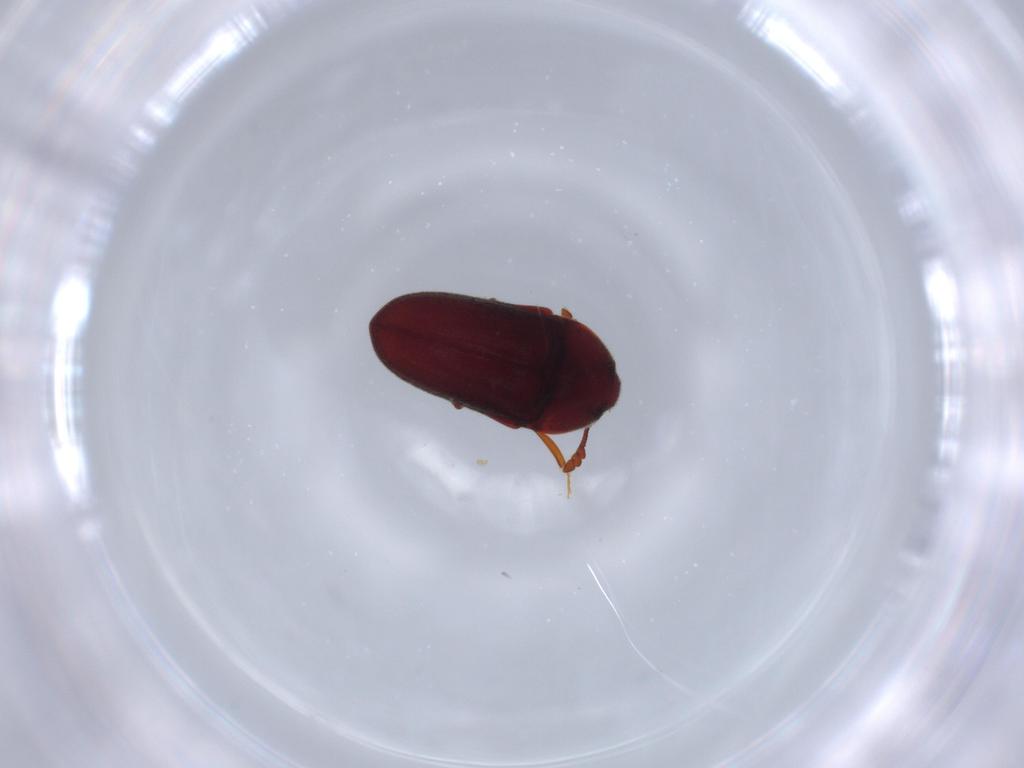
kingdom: Animalia
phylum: Arthropoda
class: Insecta
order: Coleoptera
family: Throscidae
